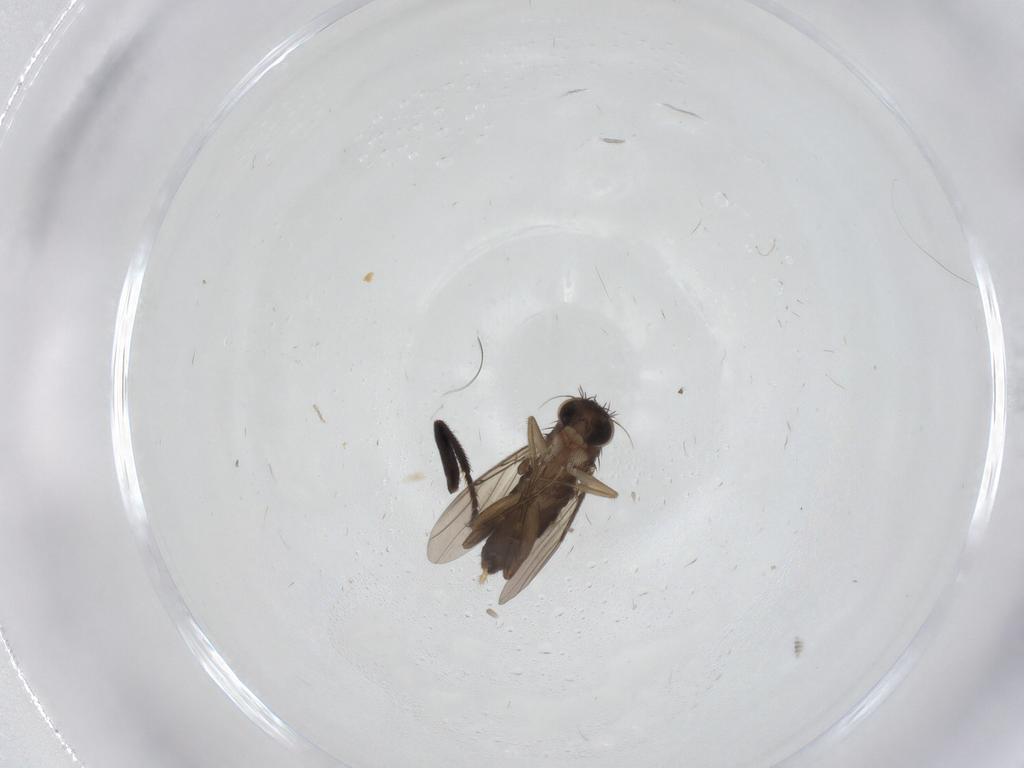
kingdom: Animalia
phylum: Arthropoda
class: Insecta
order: Diptera
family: Phoridae
